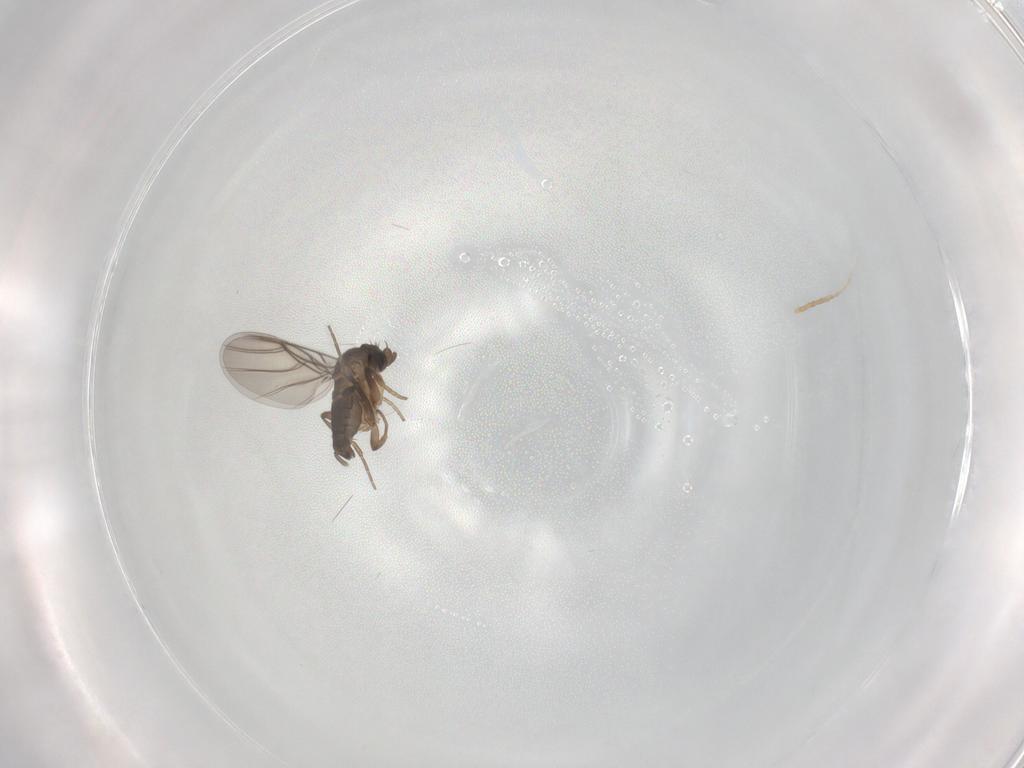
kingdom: Animalia
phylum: Arthropoda
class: Insecta
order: Diptera
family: Phoridae
